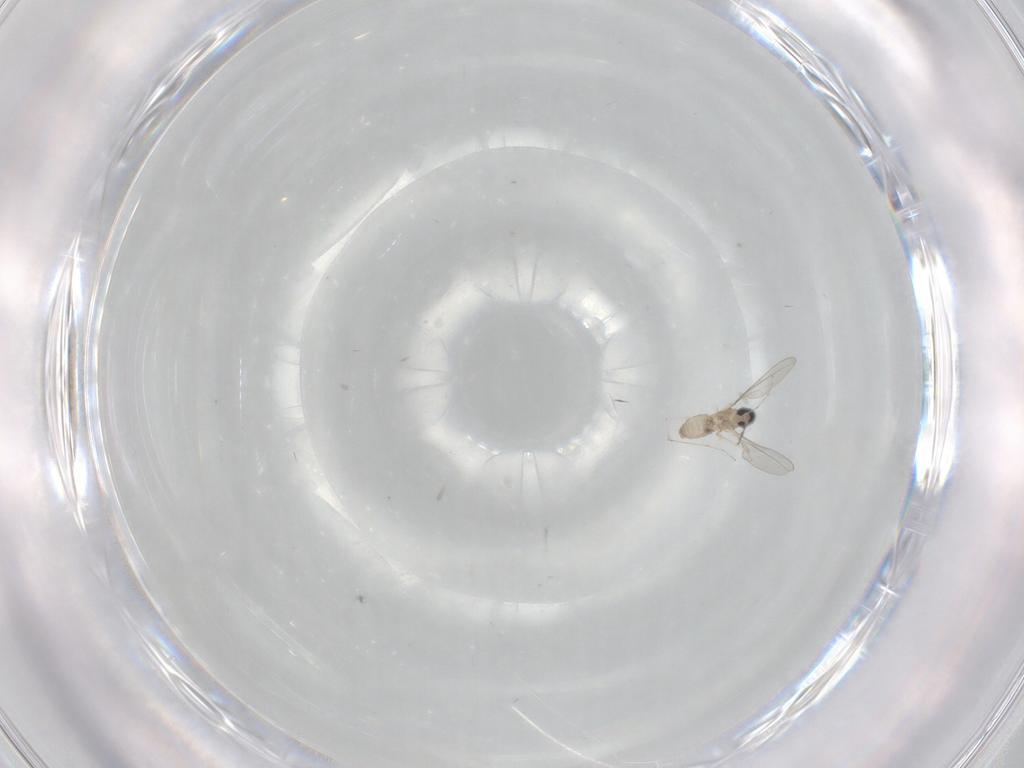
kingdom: Animalia
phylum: Arthropoda
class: Insecta
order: Diptera
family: Cecidomyiidae
